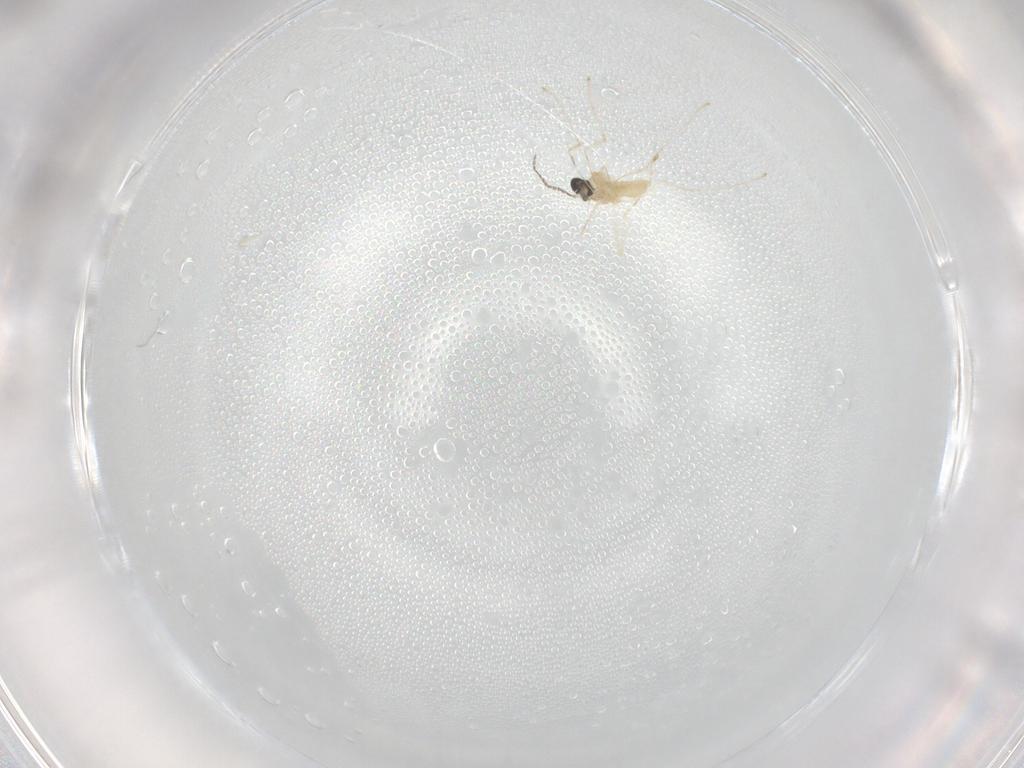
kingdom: Animalia
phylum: Arthropoda
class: Insecta
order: Diptera
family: Cecidomyiidae
